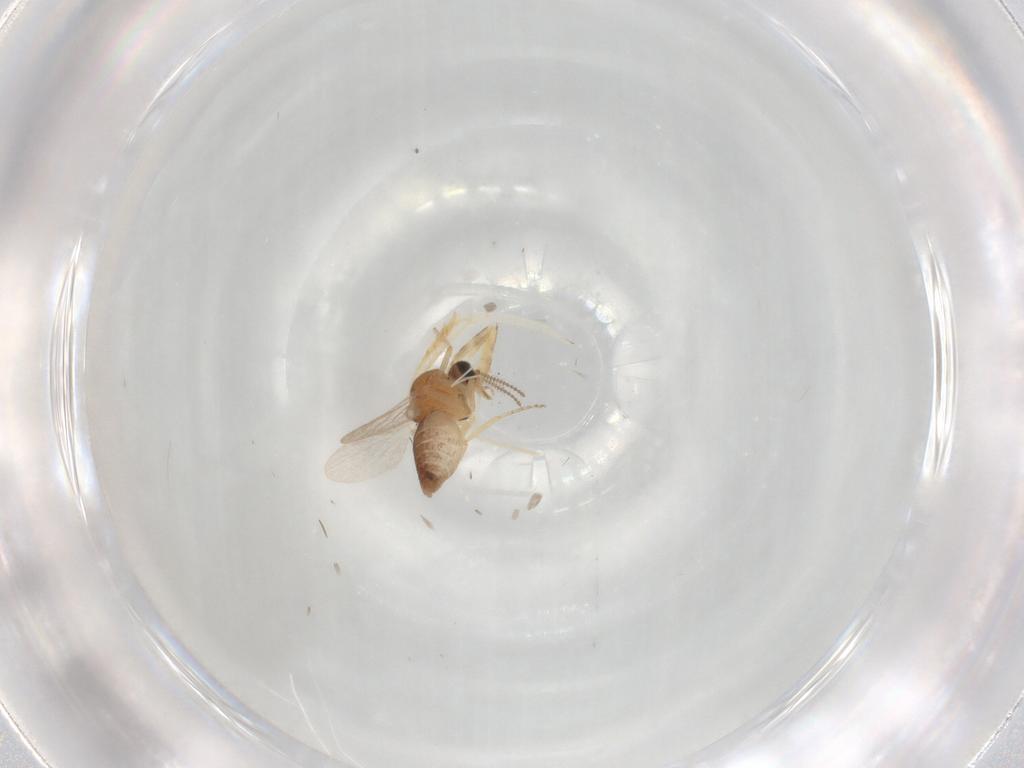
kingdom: Animalia
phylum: Arthropoda
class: Insecta
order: Diptera
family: Ceratopogonidae
